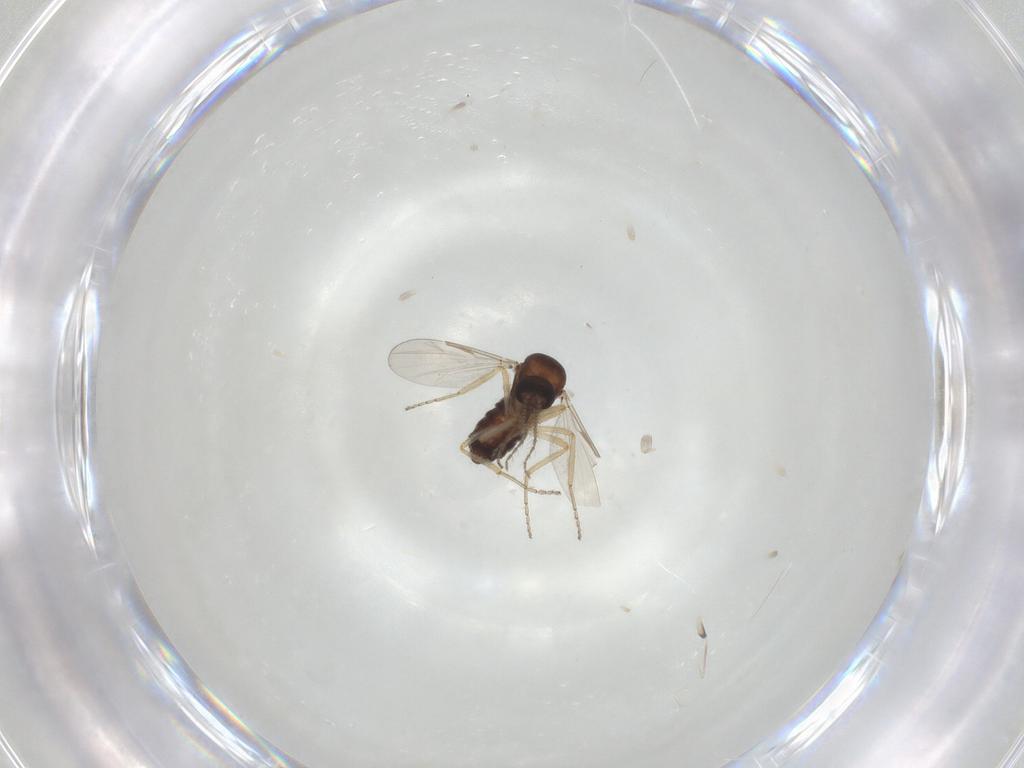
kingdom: Animalia
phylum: Arthropoda
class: Insecta
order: Diptera
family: Ceratopogonidae
